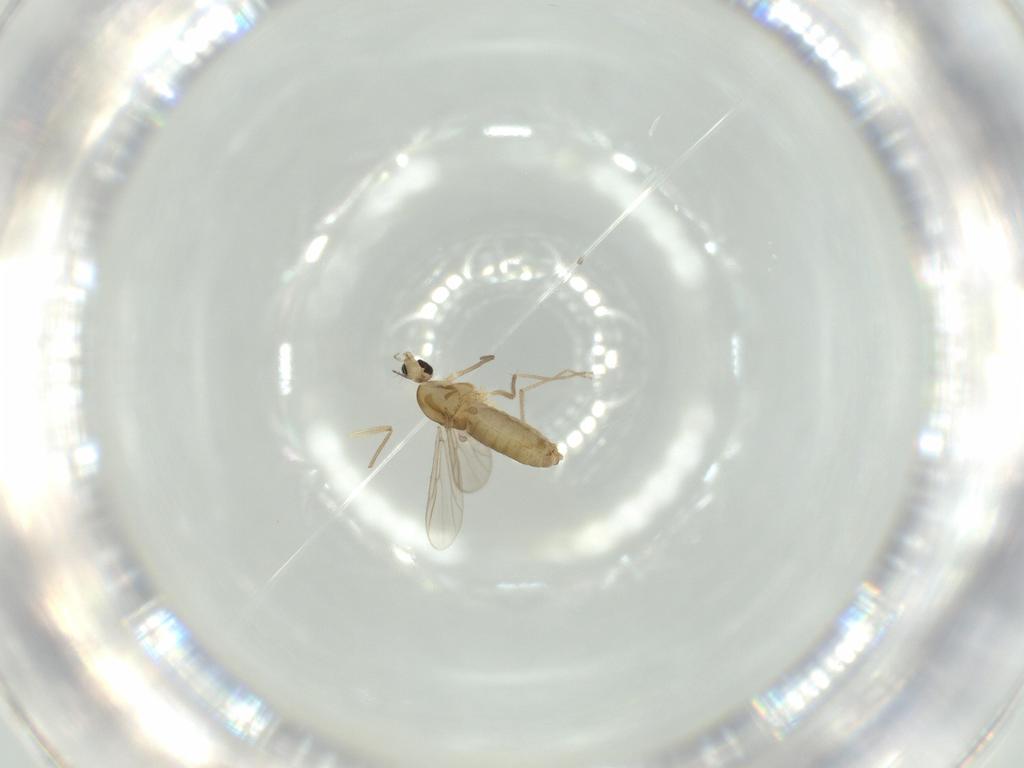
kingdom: Animalia
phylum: Arthropoda
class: Insecta
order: Diptera
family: Chironomidae
